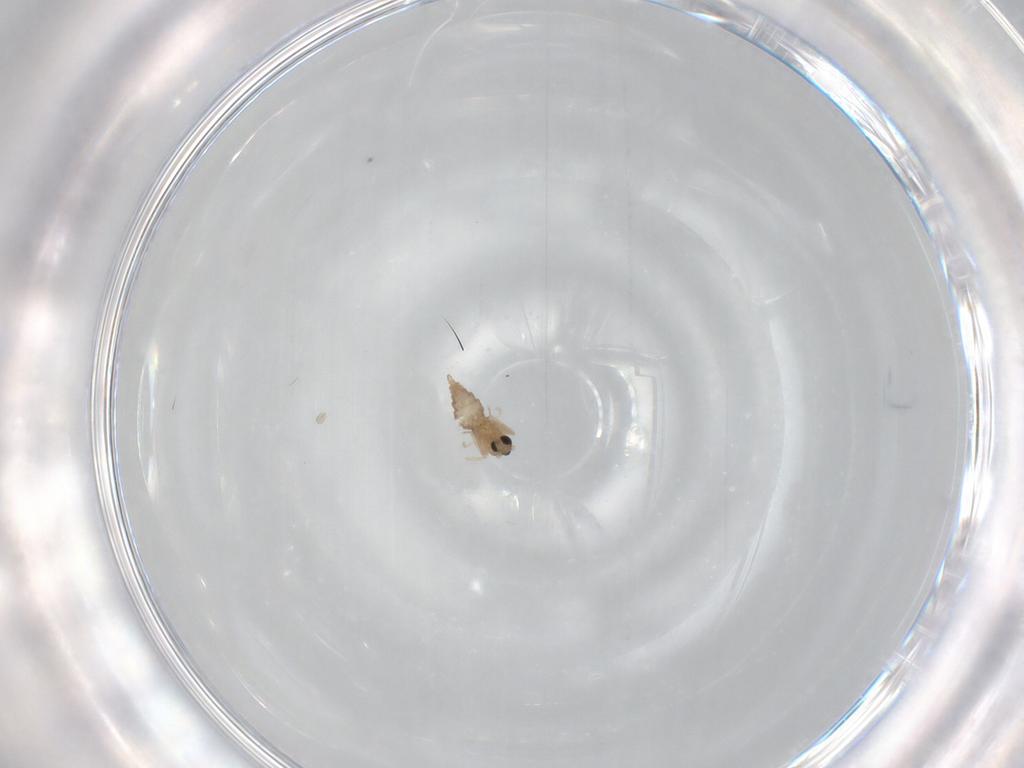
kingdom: Animalia
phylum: Arthropoda
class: Insecta
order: Diptera
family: Cecidomyiidae
